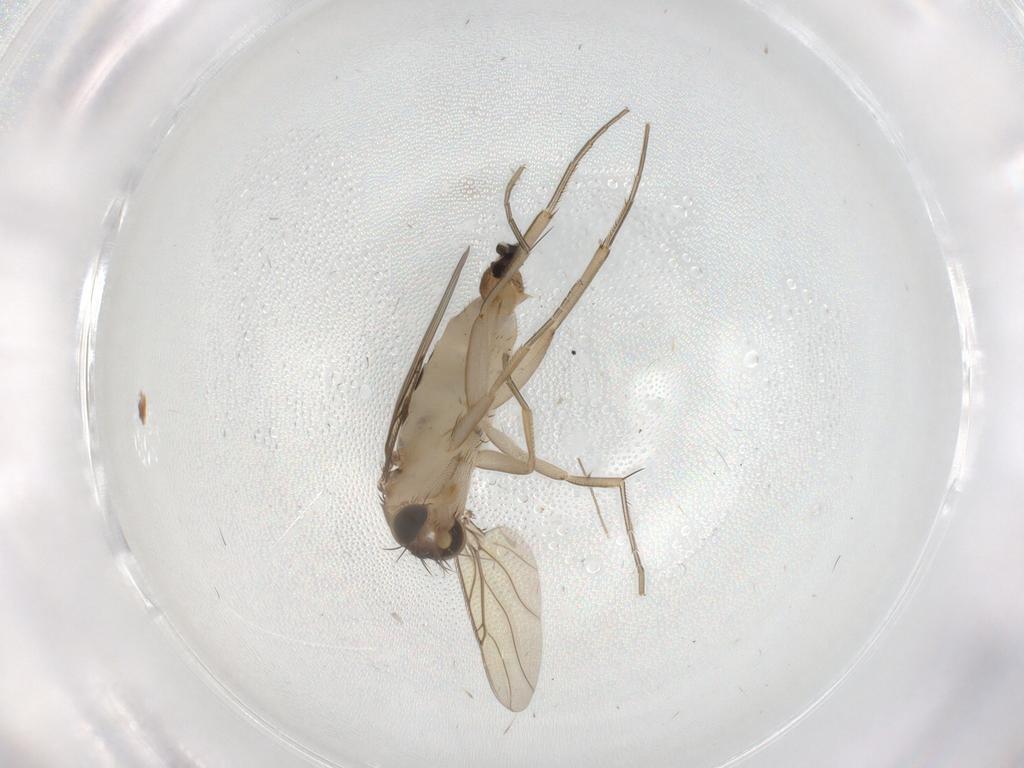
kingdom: Animalia
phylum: Arthropoda
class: Insecta
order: Diptera
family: Phoridae
